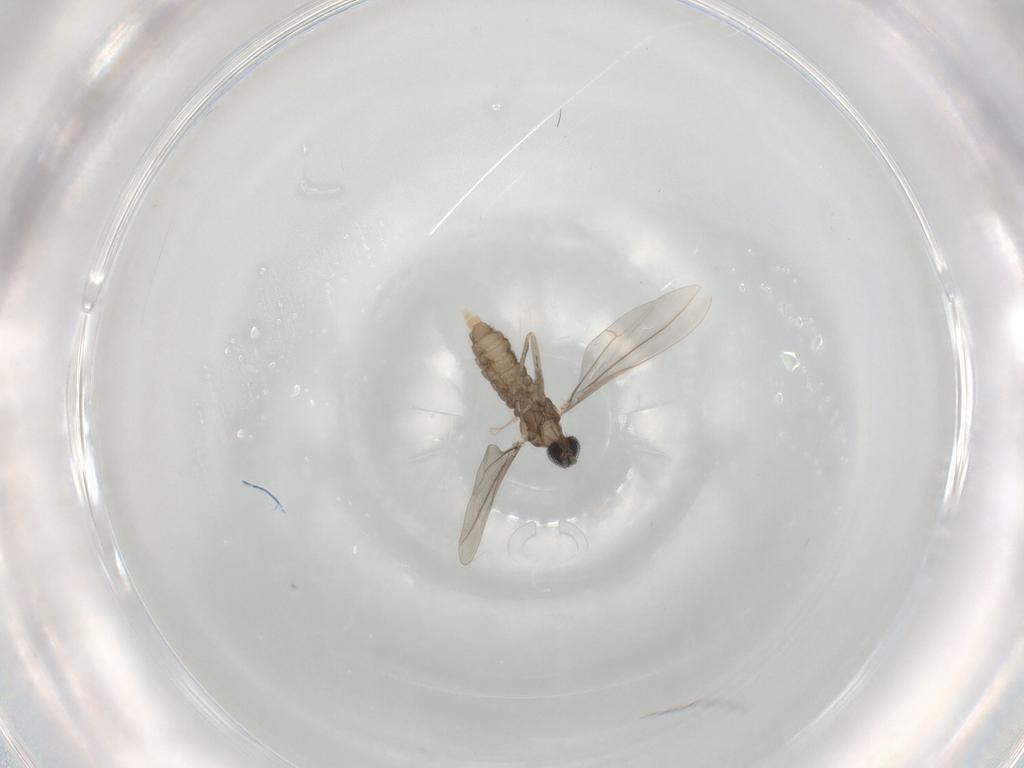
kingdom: Animalia
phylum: Arthropoda
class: Insecta
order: Diptera
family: Cecidomyiidae
